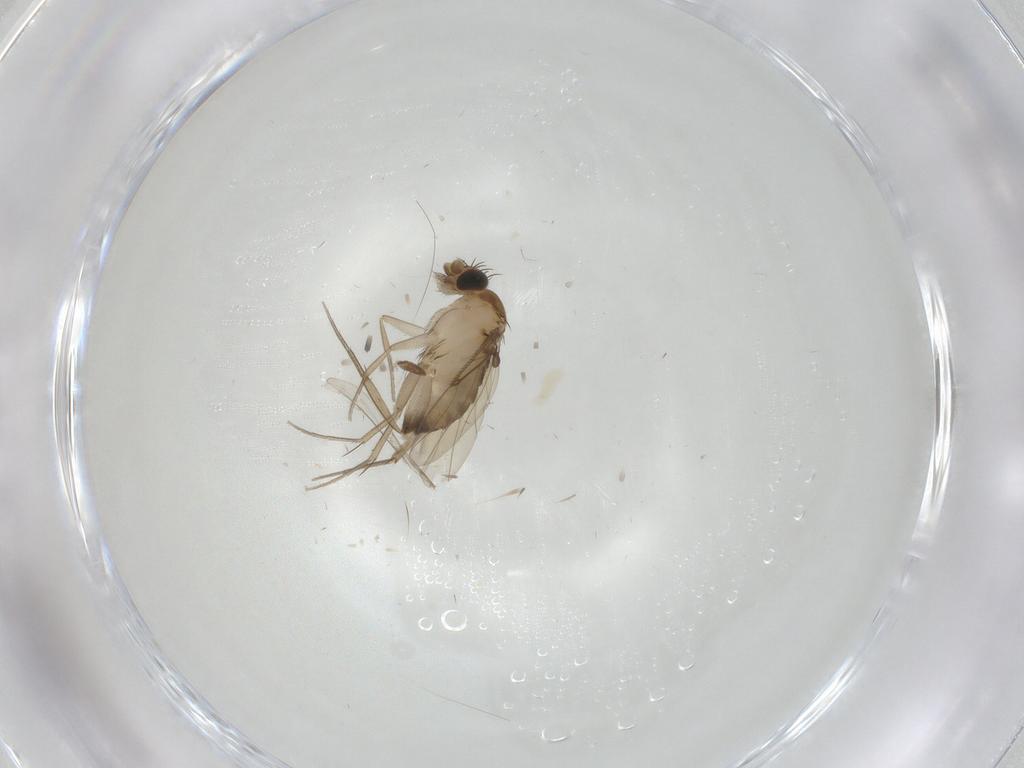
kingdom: Animalia
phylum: Arthropoda
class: Insecta
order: Diptera
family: Phoridae
